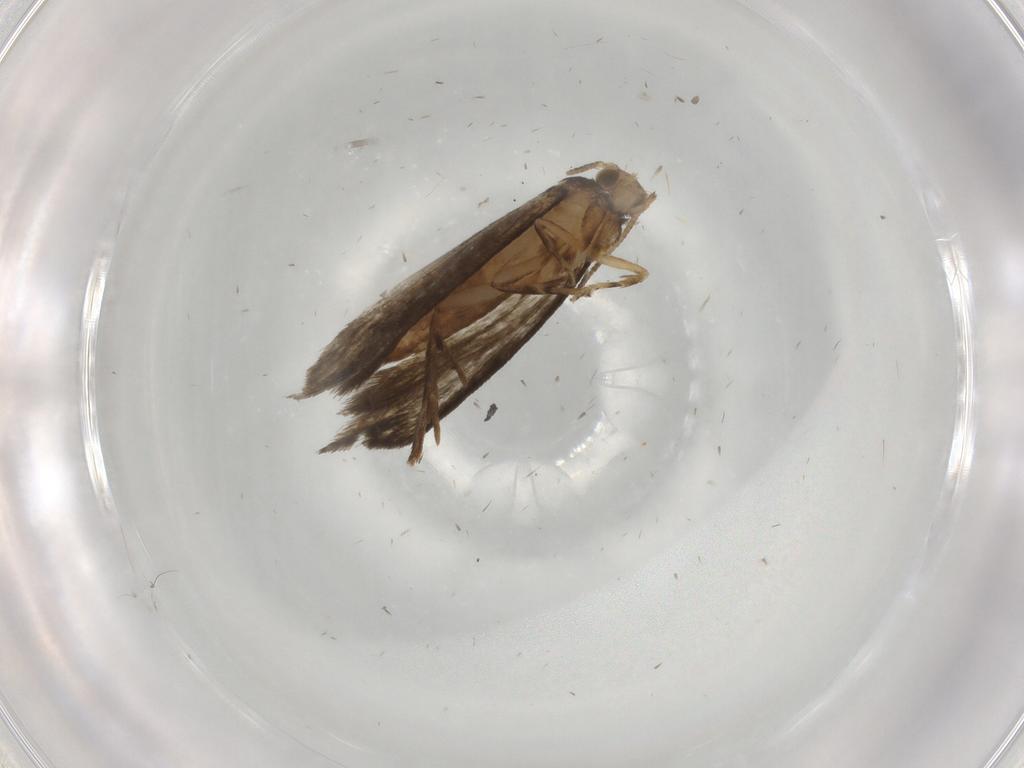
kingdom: Animalia
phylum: Arthropoda
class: Insecta
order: Lepidoptera
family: Crambidae
